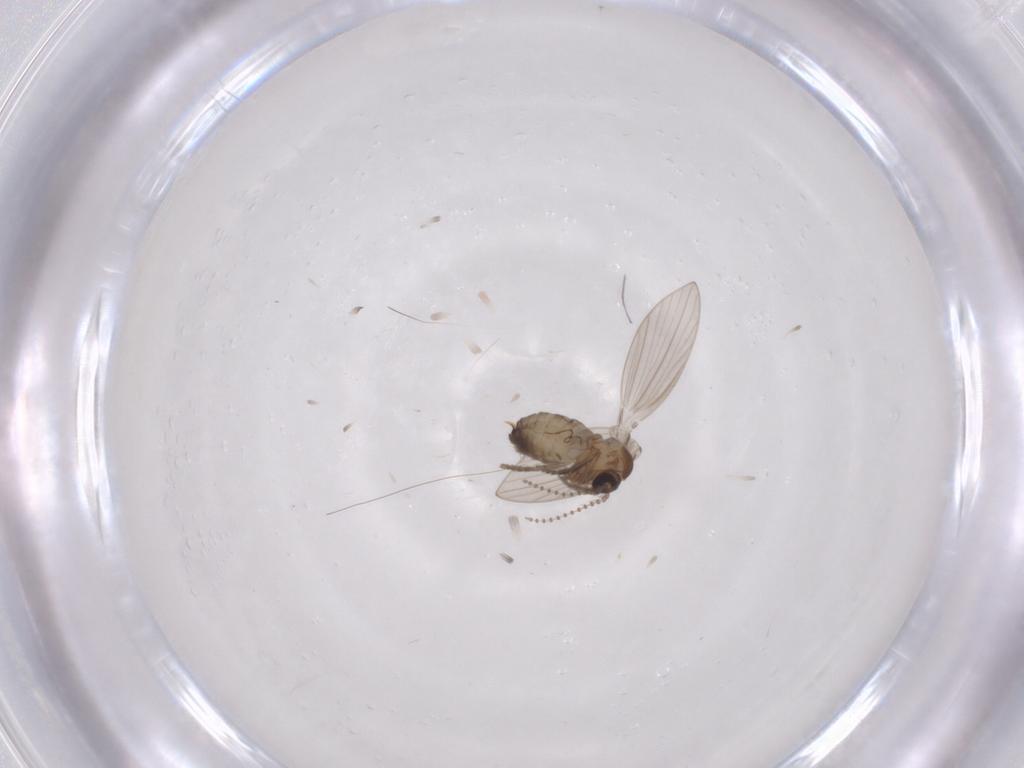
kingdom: Animalia
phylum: Arthropoda
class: Insecta
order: Diptera
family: Psychodidae
